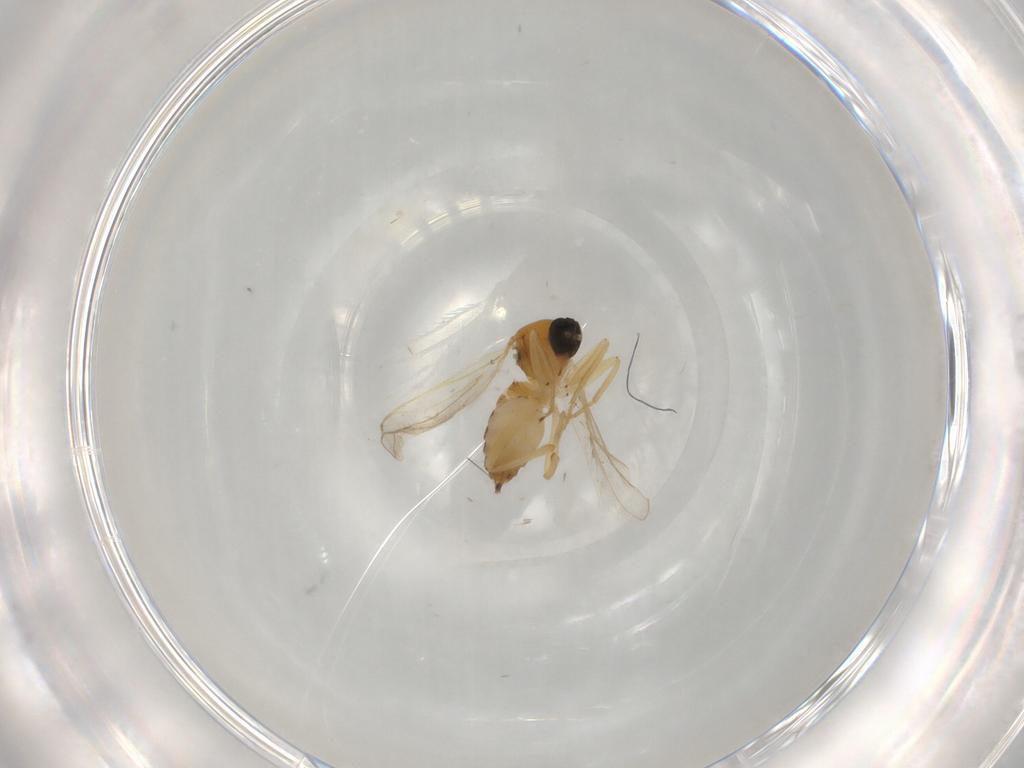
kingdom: Animalia
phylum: Arthropoda
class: Insecta
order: Diptera
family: Hybotidae
